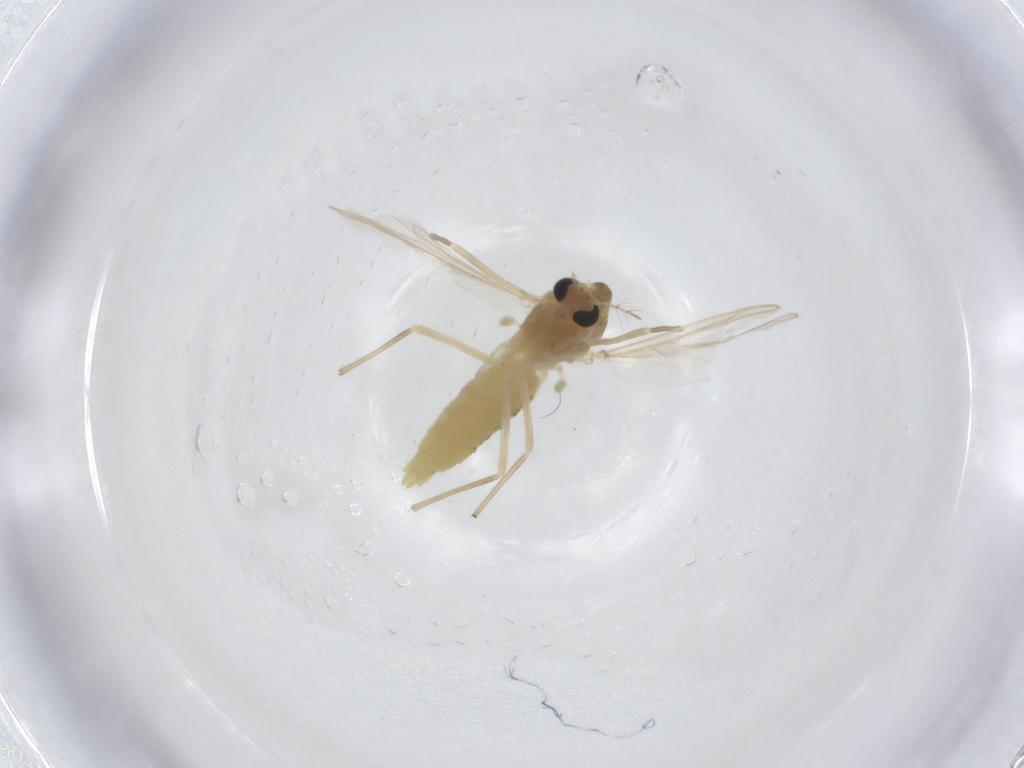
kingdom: Animalia
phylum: Arthropoda
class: Insecta
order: Diptera
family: Chironomidae
